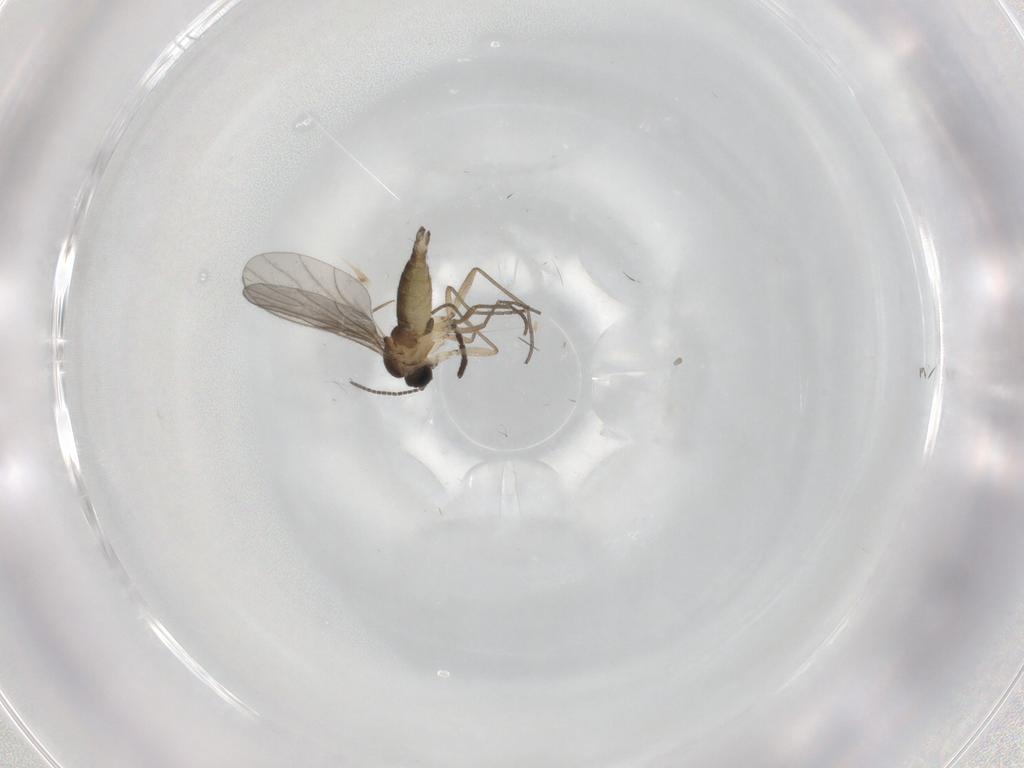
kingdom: Animalia
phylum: Arthropoda
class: Insecta
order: Diptera
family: Sciaridae
